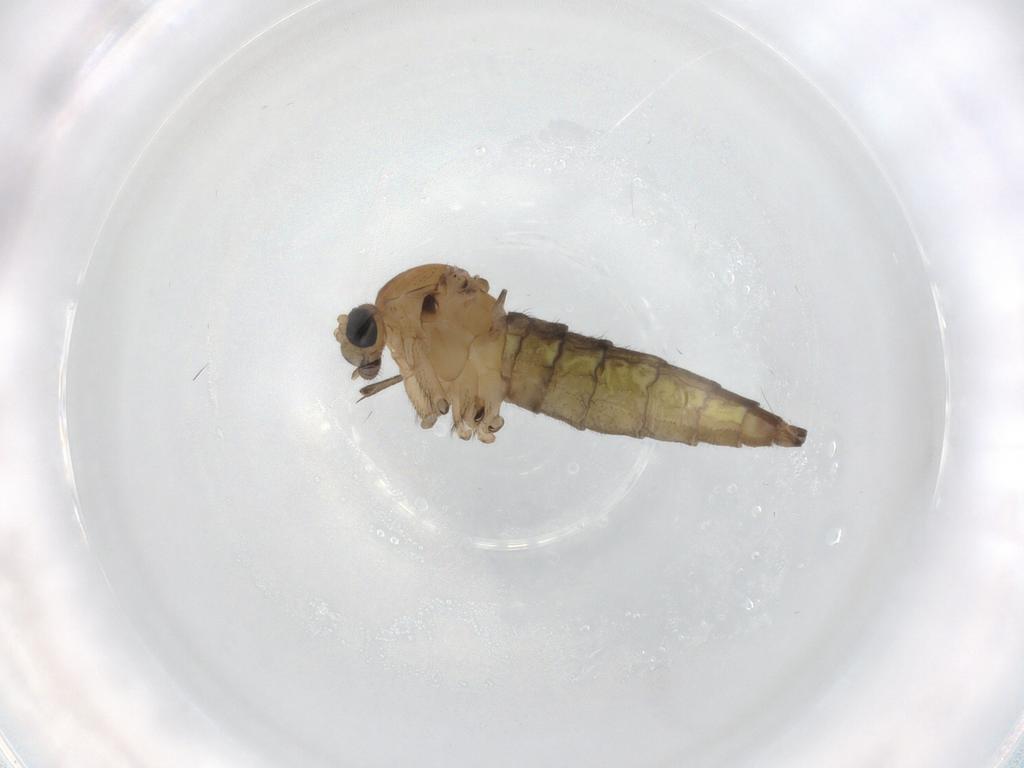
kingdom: Animalia
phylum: Arthropoda
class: Insecta
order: Diptera
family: Sciaridae
